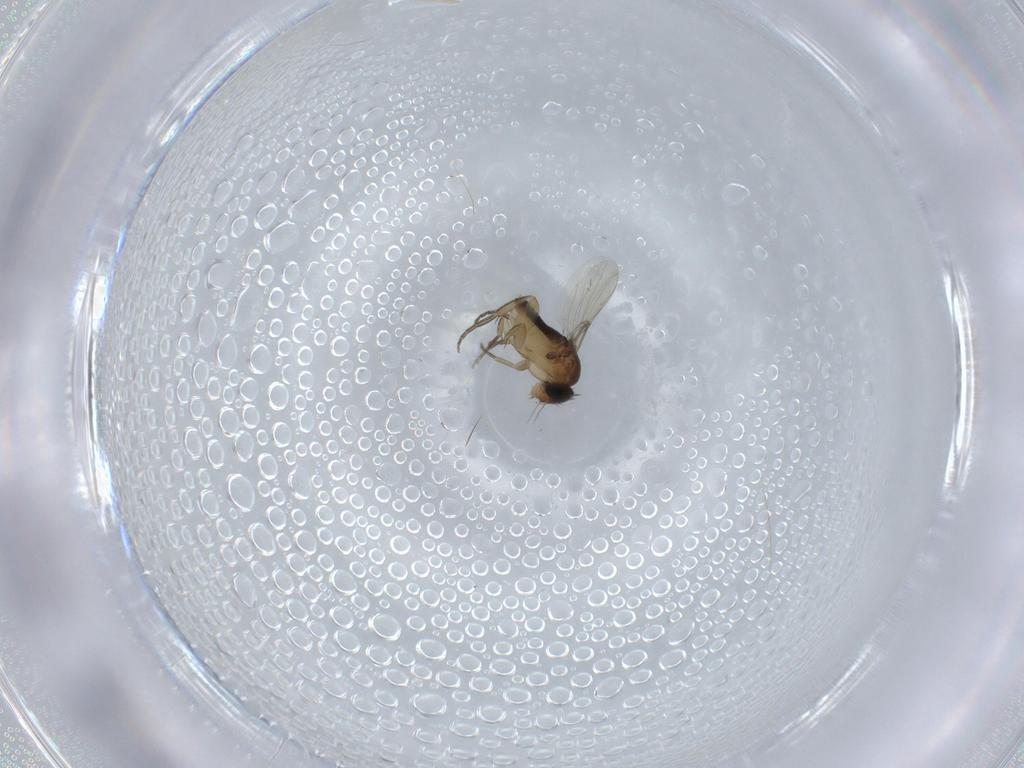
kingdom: Animalia
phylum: Arthropoda
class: Insecta
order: Diptera
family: Phoridae
